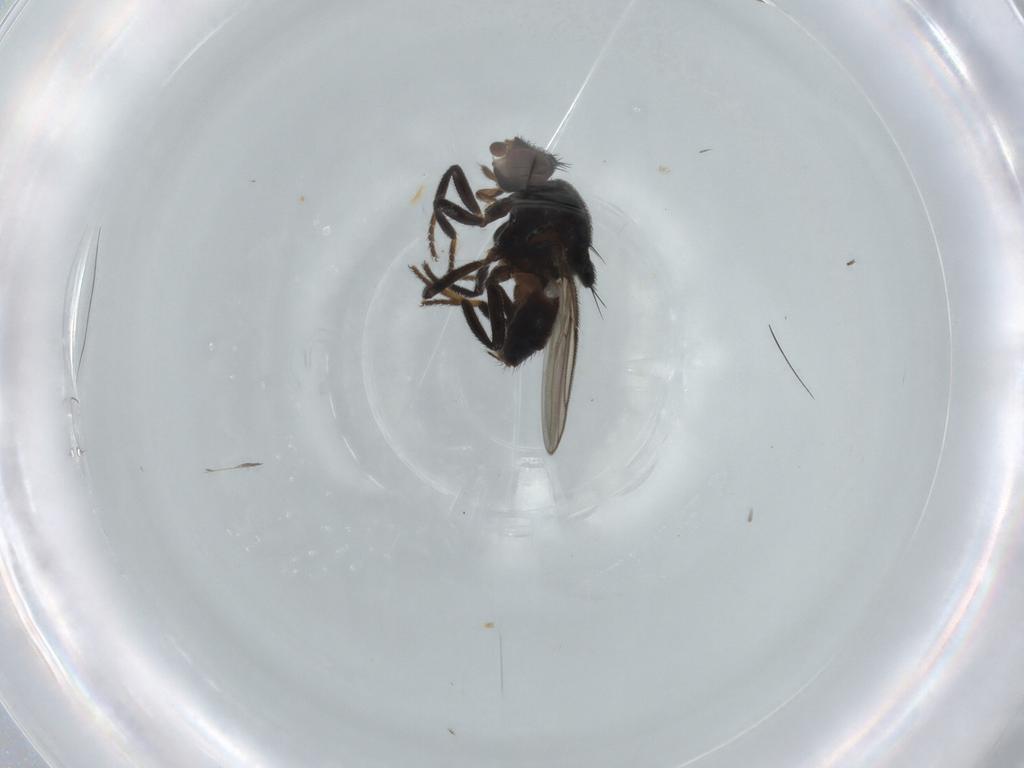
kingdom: Animalia
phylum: Arthropoda
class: Insecta
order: Diptera
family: Chloropidae
